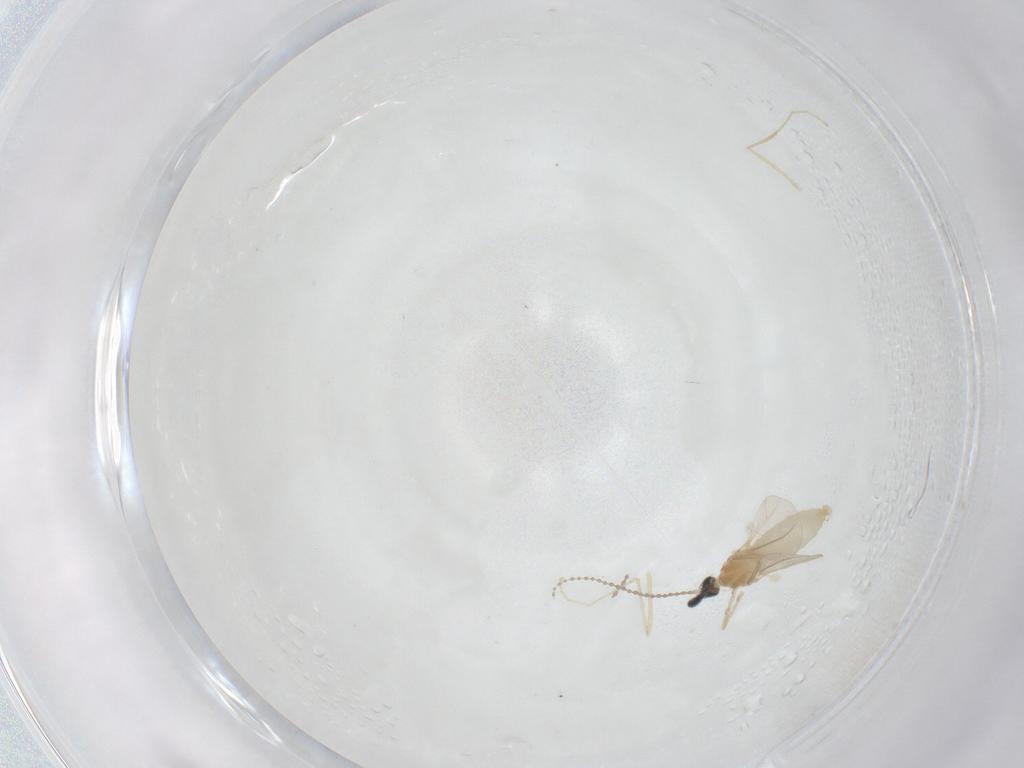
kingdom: Animalia
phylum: Arthropoda
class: Insecta
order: Diptera
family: Cecidomyiidae
